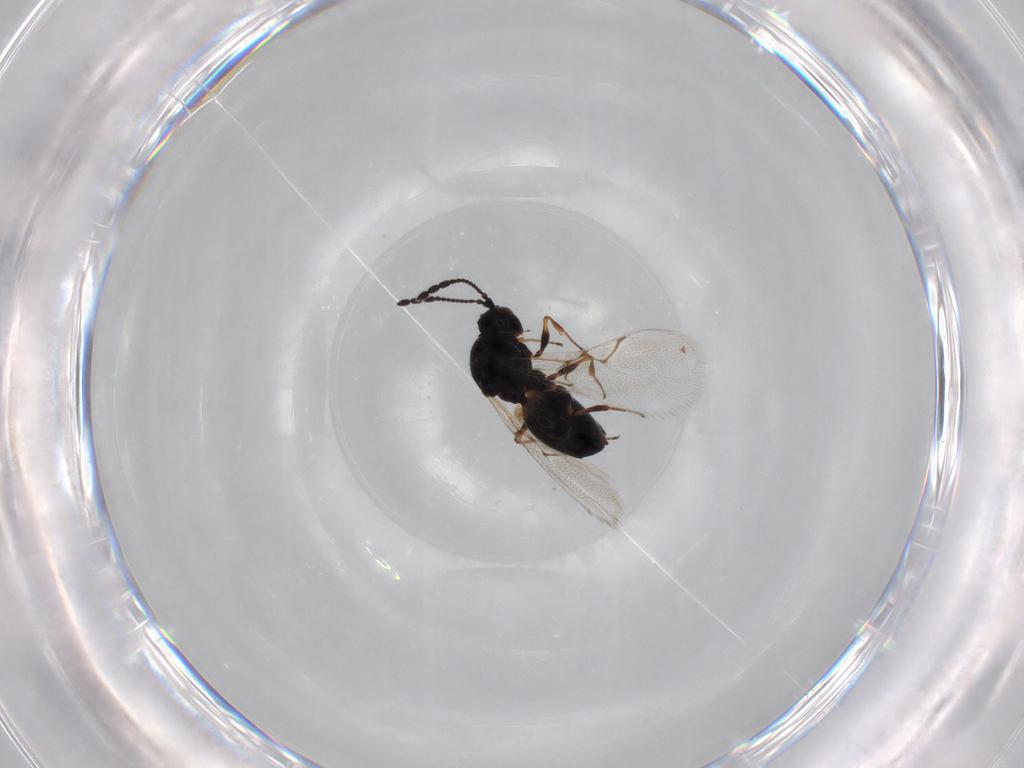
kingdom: Animalia
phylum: Arthropoda
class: Insecta
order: Hymenoptera
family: Figitidae
